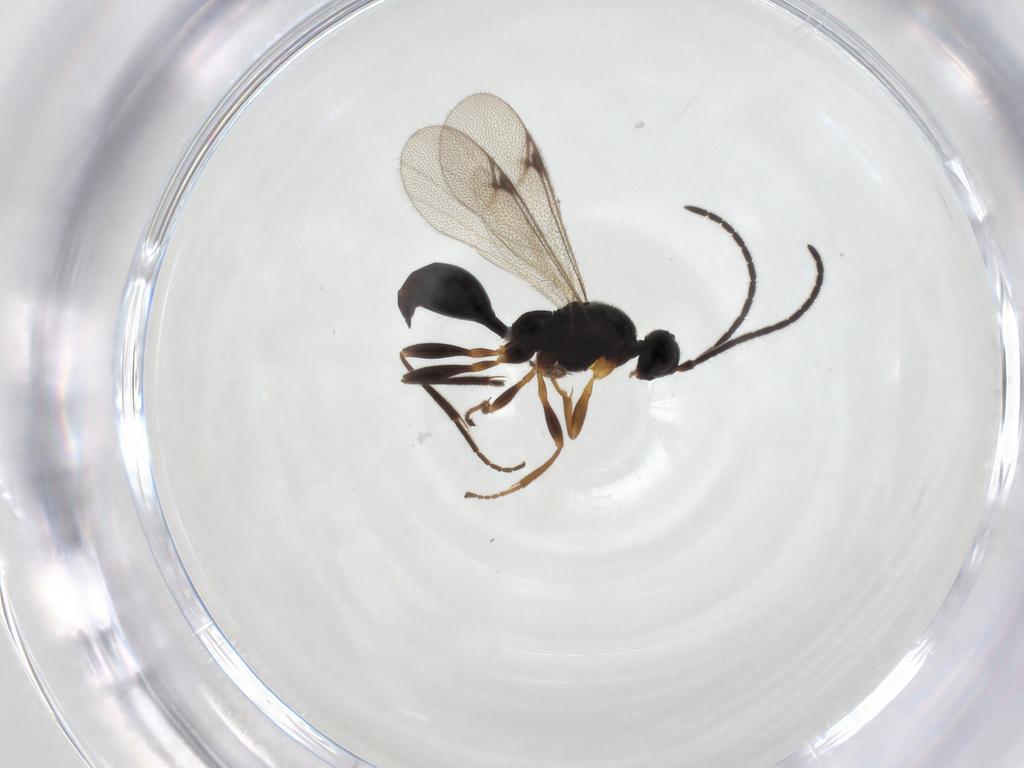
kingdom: Animalia
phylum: Arthropoda
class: Insecta
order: Hymenoptera
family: Proctotrupidae
